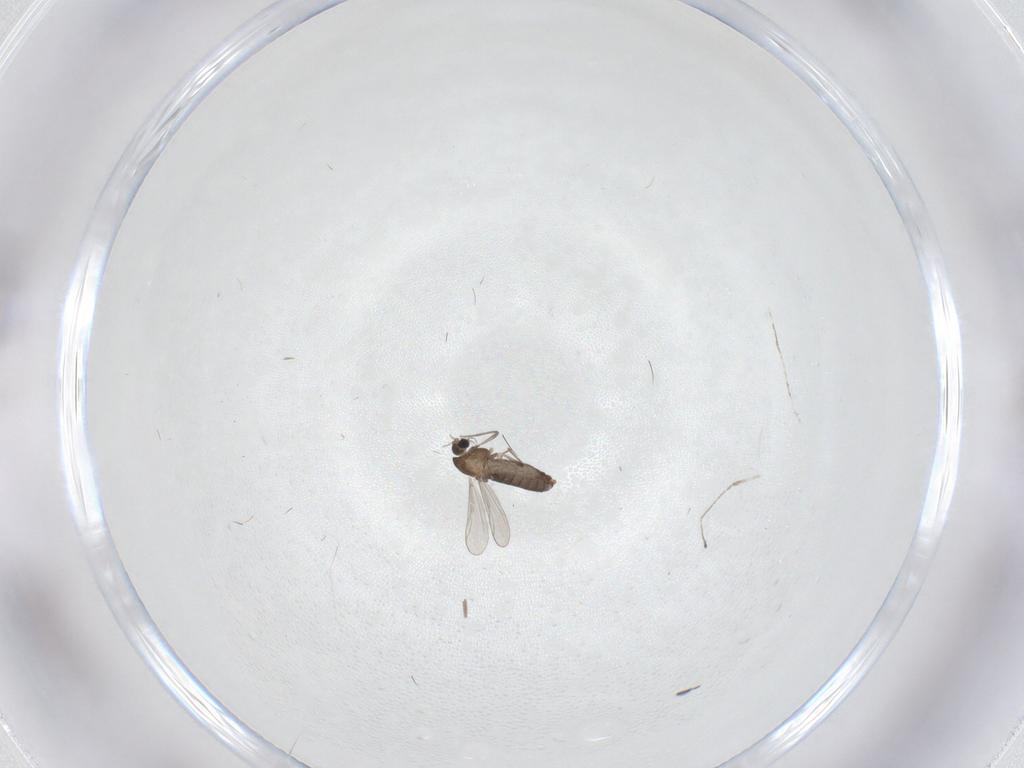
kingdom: Animalia
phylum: Arthropoda
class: Insecta
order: Diptera
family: Cecidomyiidae
